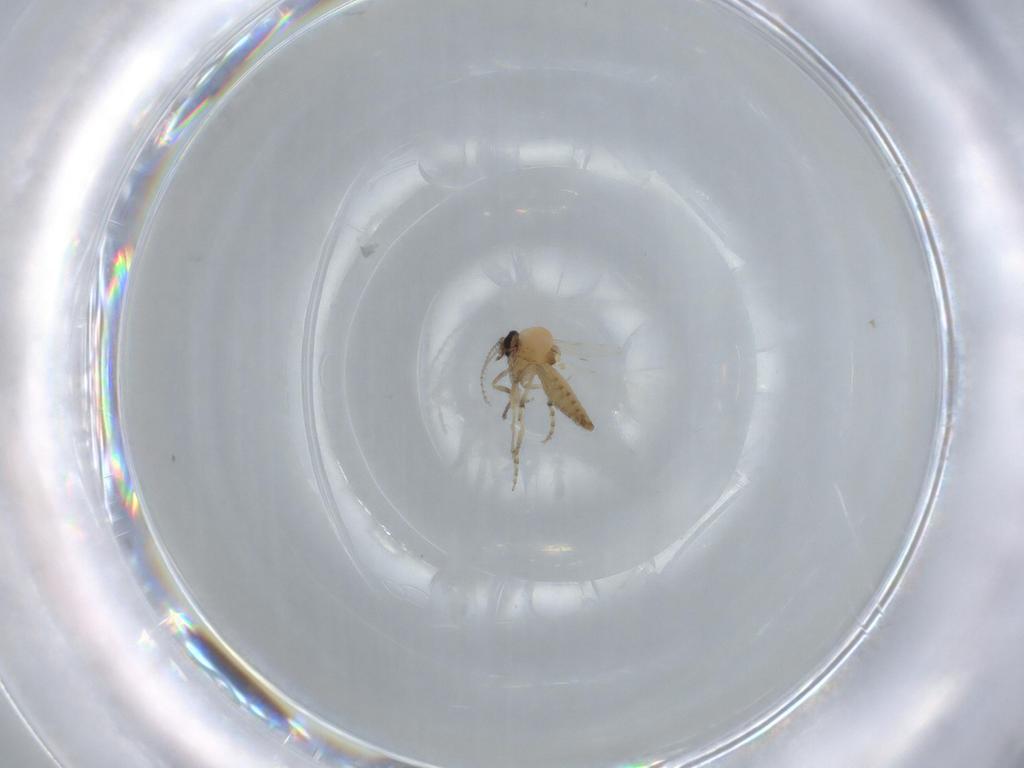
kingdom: Animalia
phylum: Arthropoda
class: Insecta
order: Diptera
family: Ceratopogonidae
